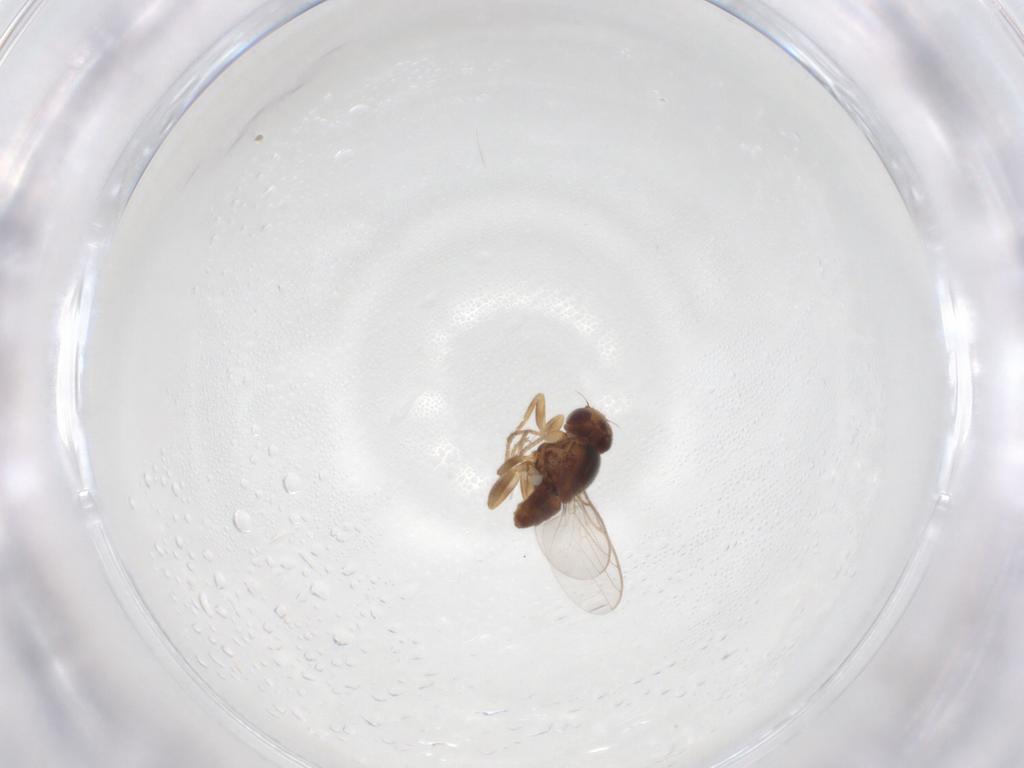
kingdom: Animalia
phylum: Arthropoda
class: Insecta
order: Diptera
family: Chloropidae
